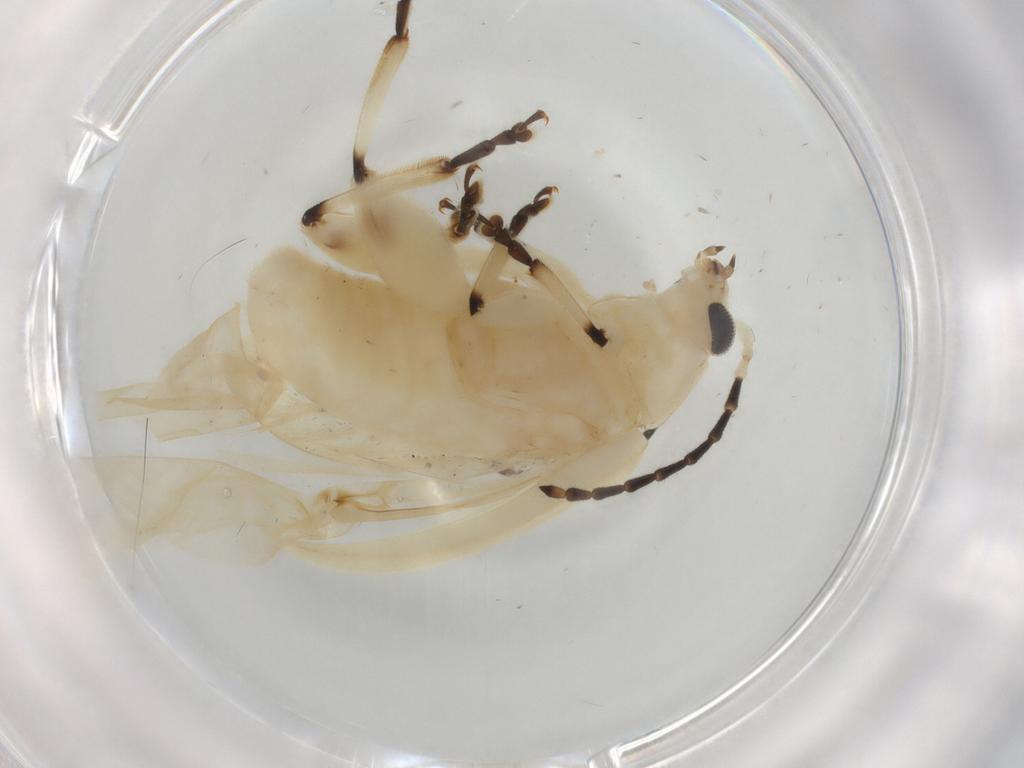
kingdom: Animalia
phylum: Arthropoda
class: Insecta
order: Coleoptera
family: Chrysomelidae
